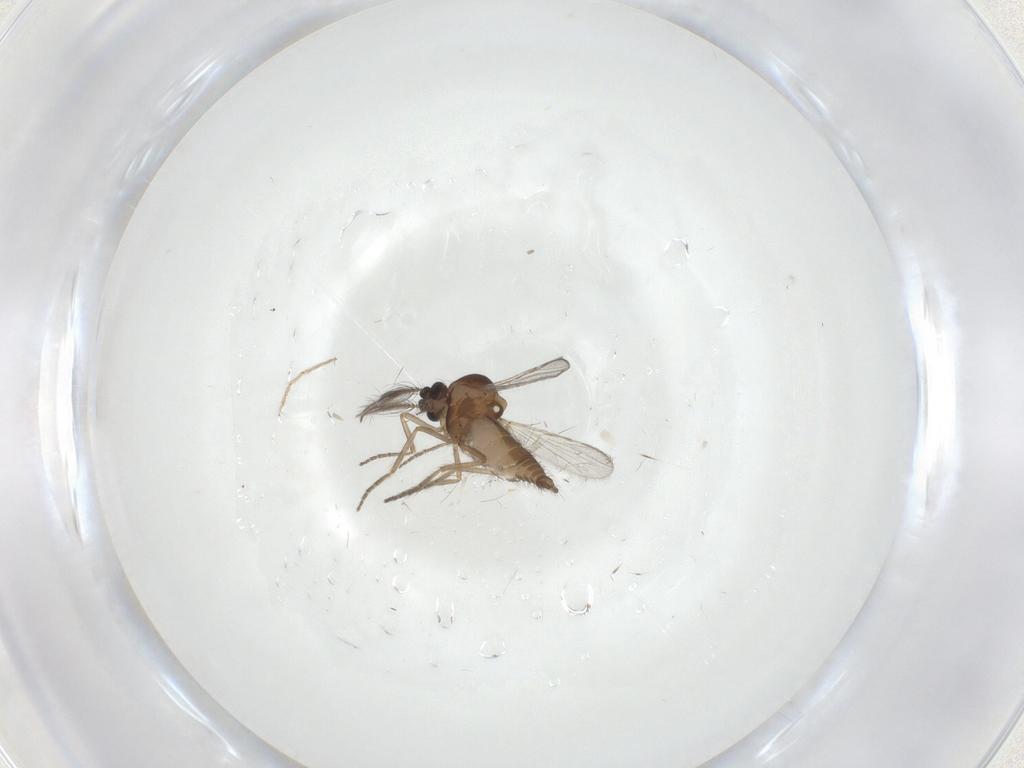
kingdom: Animalia
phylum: Arthropoda
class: Insecta
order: Diptera
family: Chironomidae
